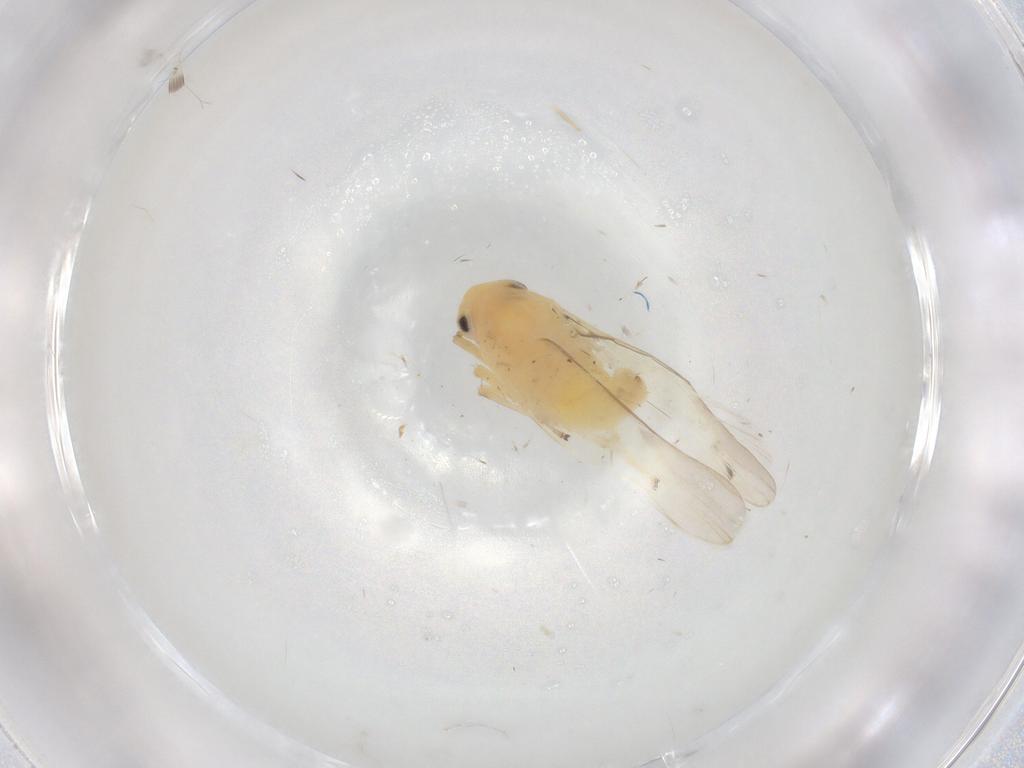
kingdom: Animalia
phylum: Arthropoda
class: Insecta
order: Hemiptera
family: Cicadellidae
